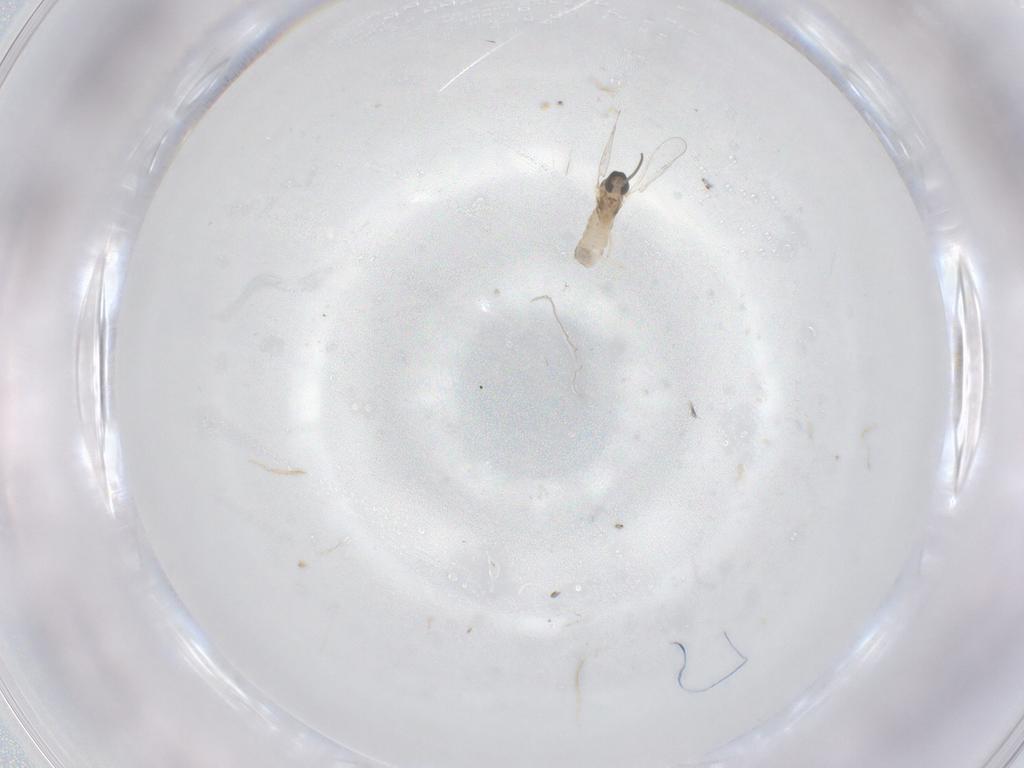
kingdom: Animalia
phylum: Arthropoda
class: Insecta
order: Diptera
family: Cecidomyiidae
